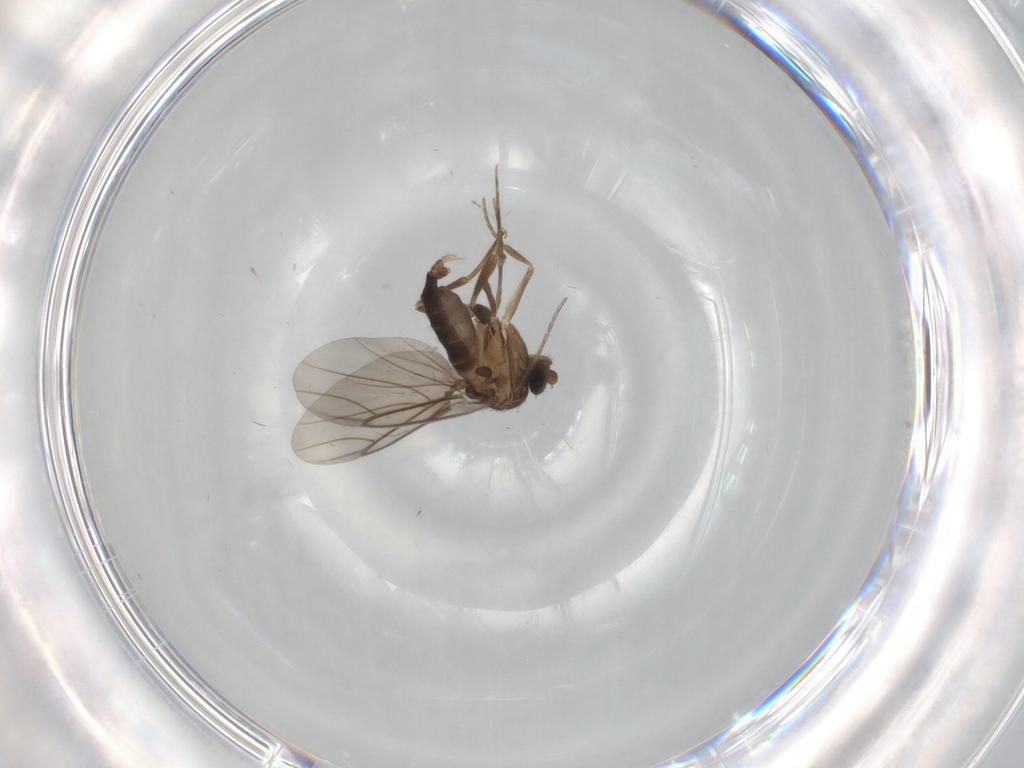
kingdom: Animalia
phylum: Arthropoda
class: Insecta
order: Diptera
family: Phoridae
